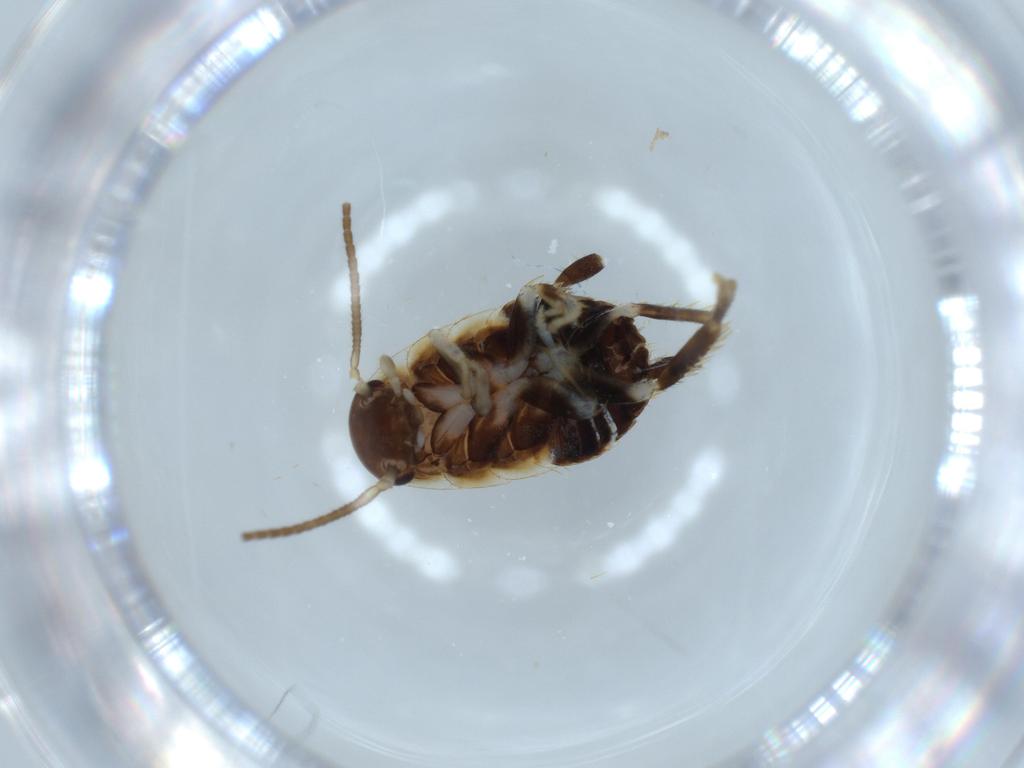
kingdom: Animalia
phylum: Arthropoda
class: Insecta
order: Blattodea
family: Ectobiidae
